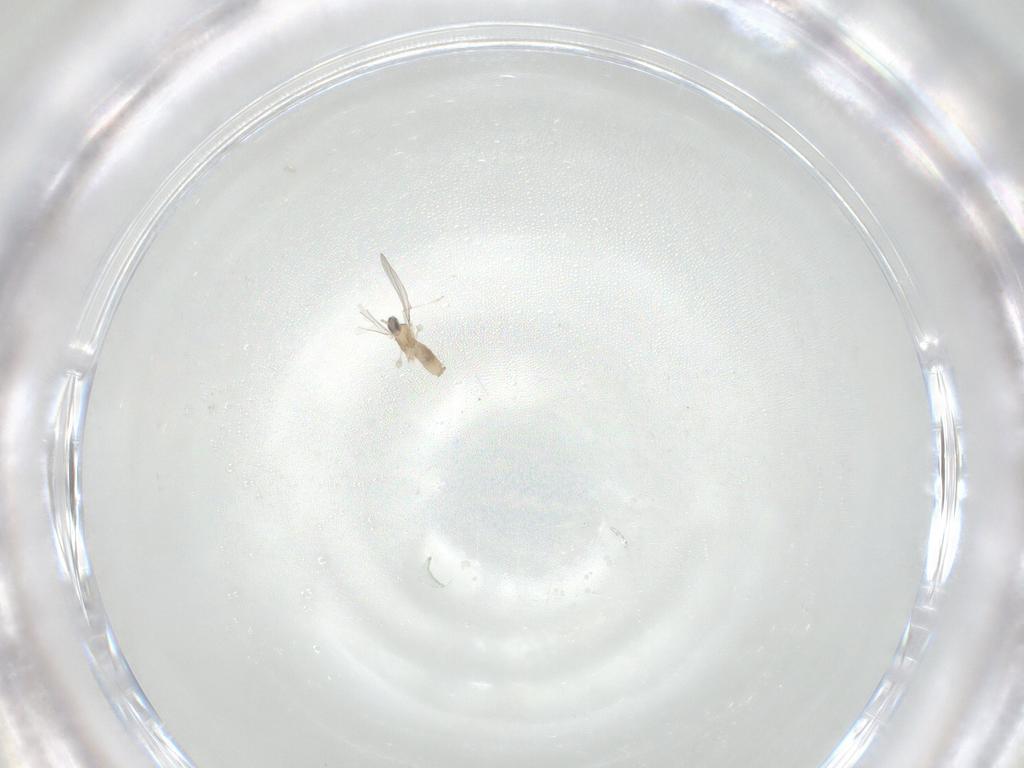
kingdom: Animalia
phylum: Arthropoda
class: Insecta
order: Diptera
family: Cecidomyiidae
